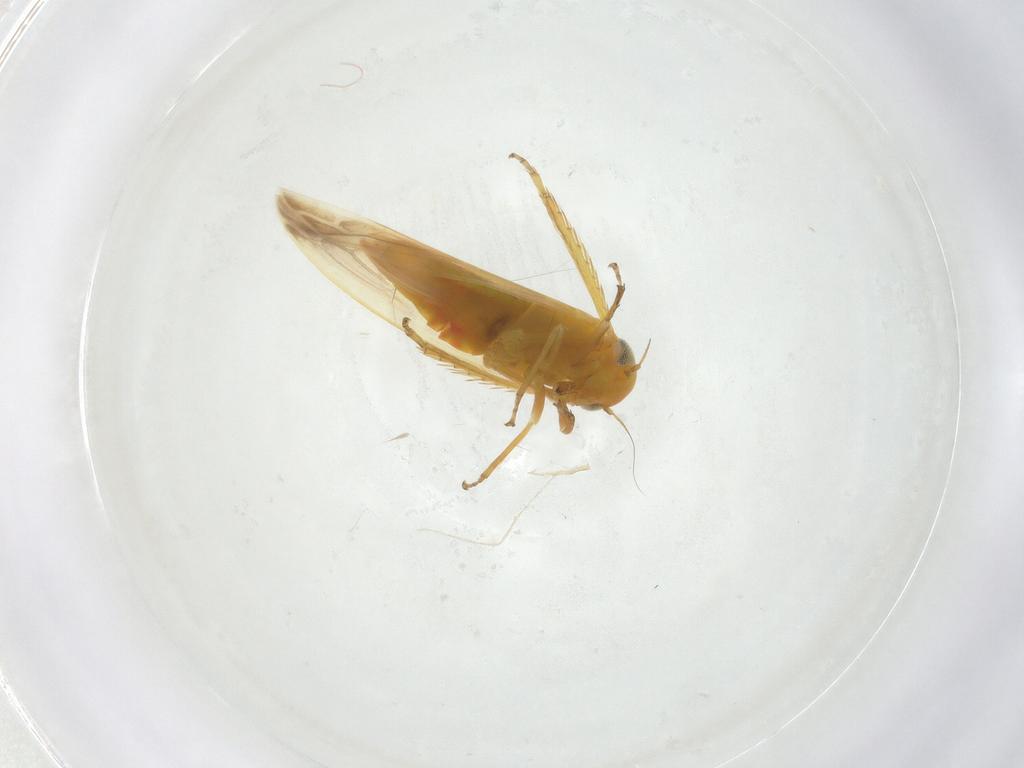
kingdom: Animalia
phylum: Arthropoda
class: Insecta
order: Hemiptera
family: Cicadellidae
